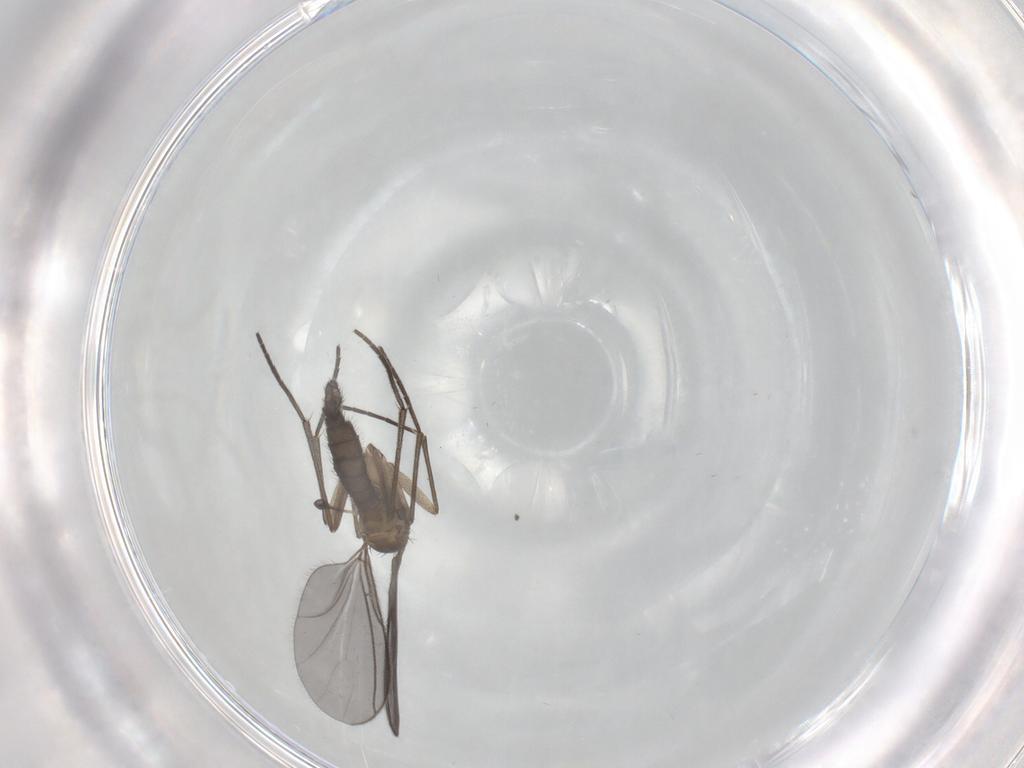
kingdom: Animalia
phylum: Arthropoda
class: Insecta
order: Diptera
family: Sciaridae
